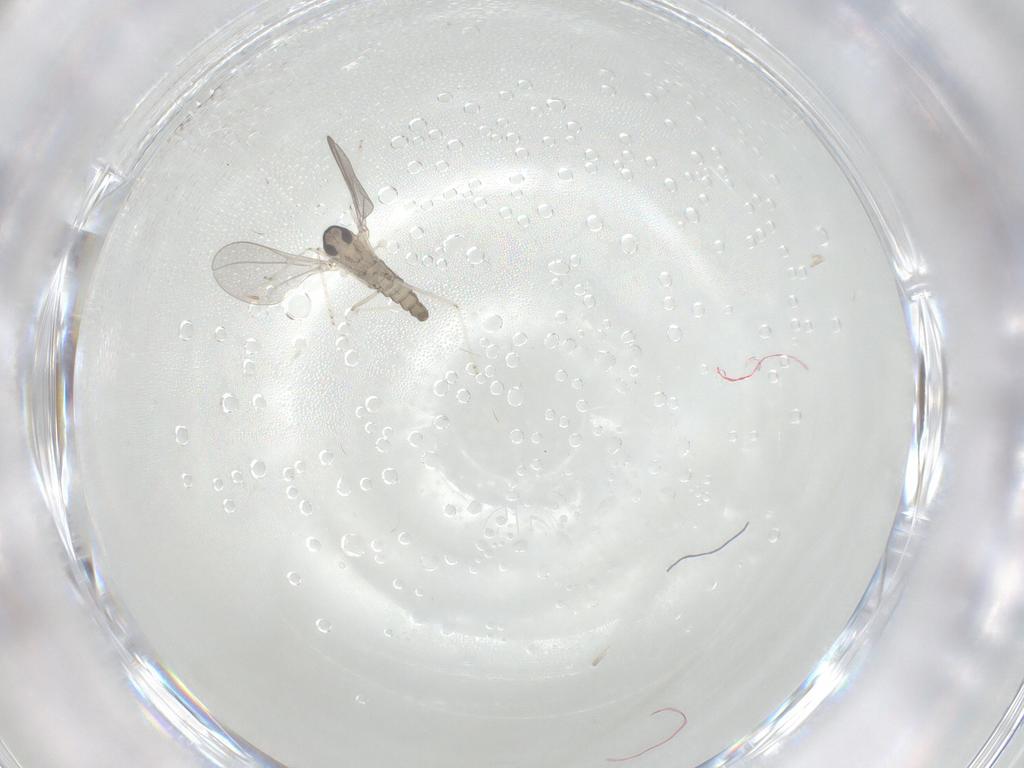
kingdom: Animalia
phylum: Arthropoda
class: Insecta
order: Diptera
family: Cecidomyiidae
